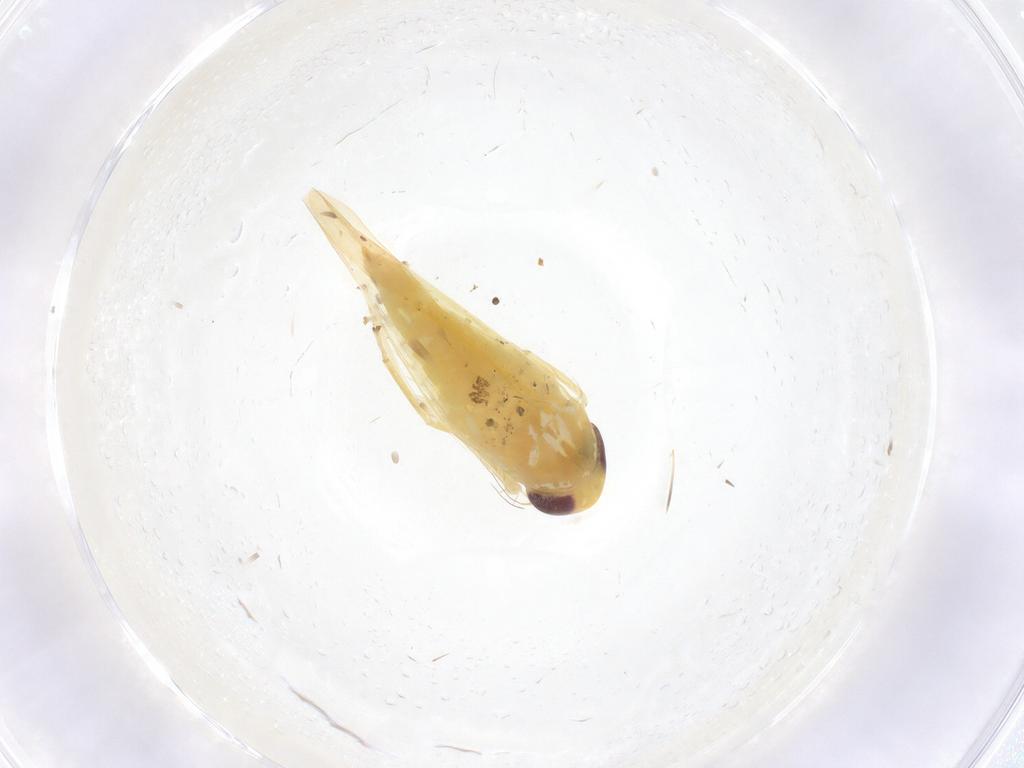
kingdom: Animalia
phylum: Arthropoda
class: Insecta
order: Hemiptera
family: Cicadellidae
